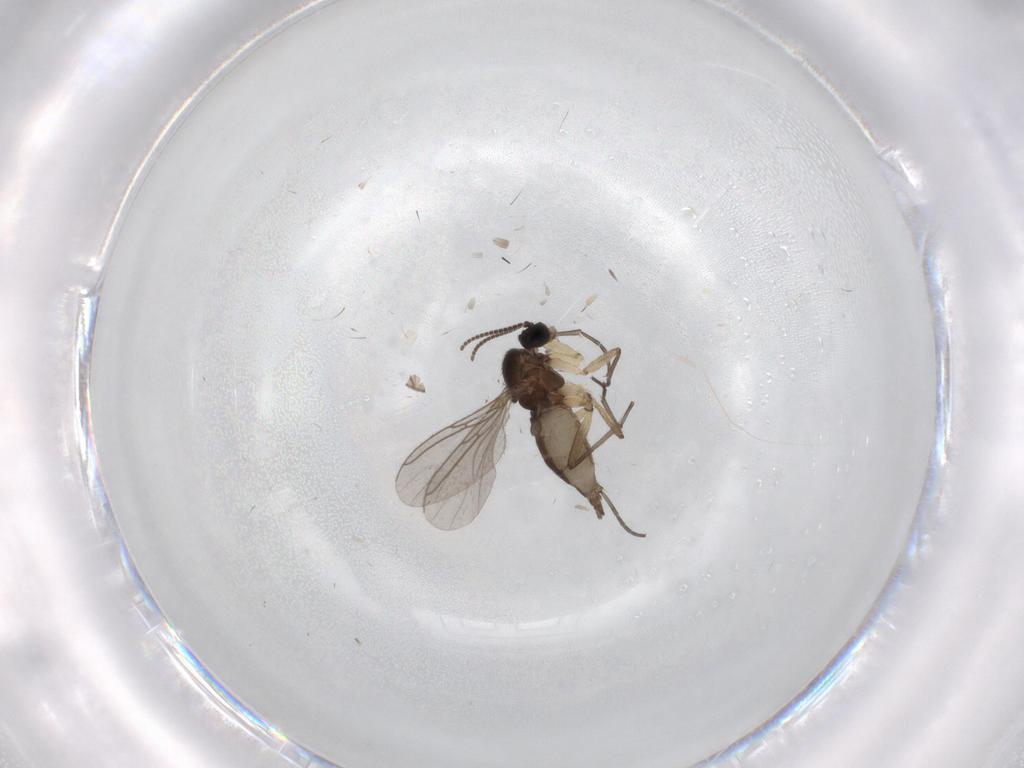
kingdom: Animalia
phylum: Arthropoda
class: Insecta
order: Diptera
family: Sciaridae
